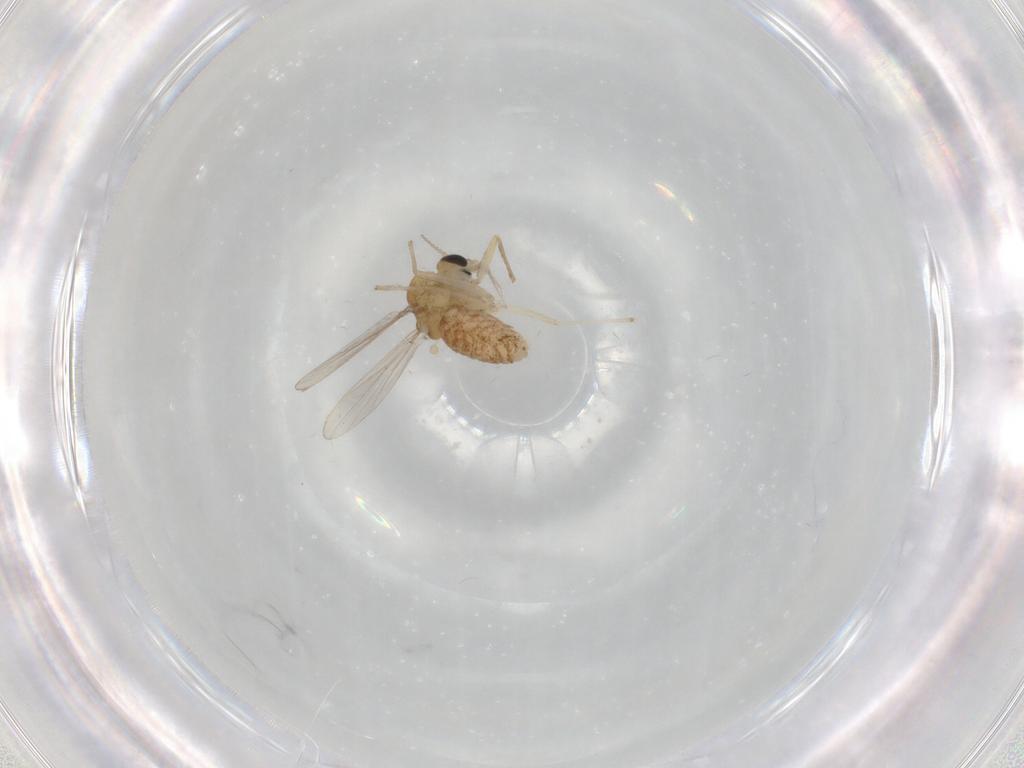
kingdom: Animalia
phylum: Arthropoda
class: Insecta
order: Diptera
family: Chironomidae
